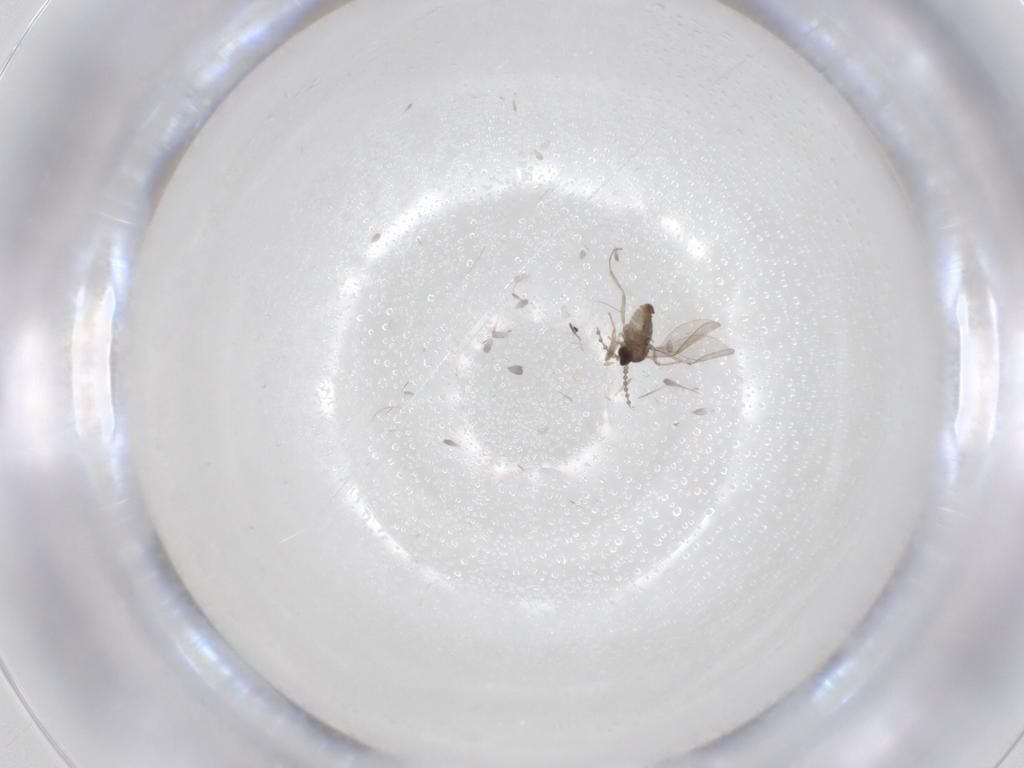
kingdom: Animalia
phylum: Arthropoda
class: Insecta
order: Diptera
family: Cecidomyiidae
